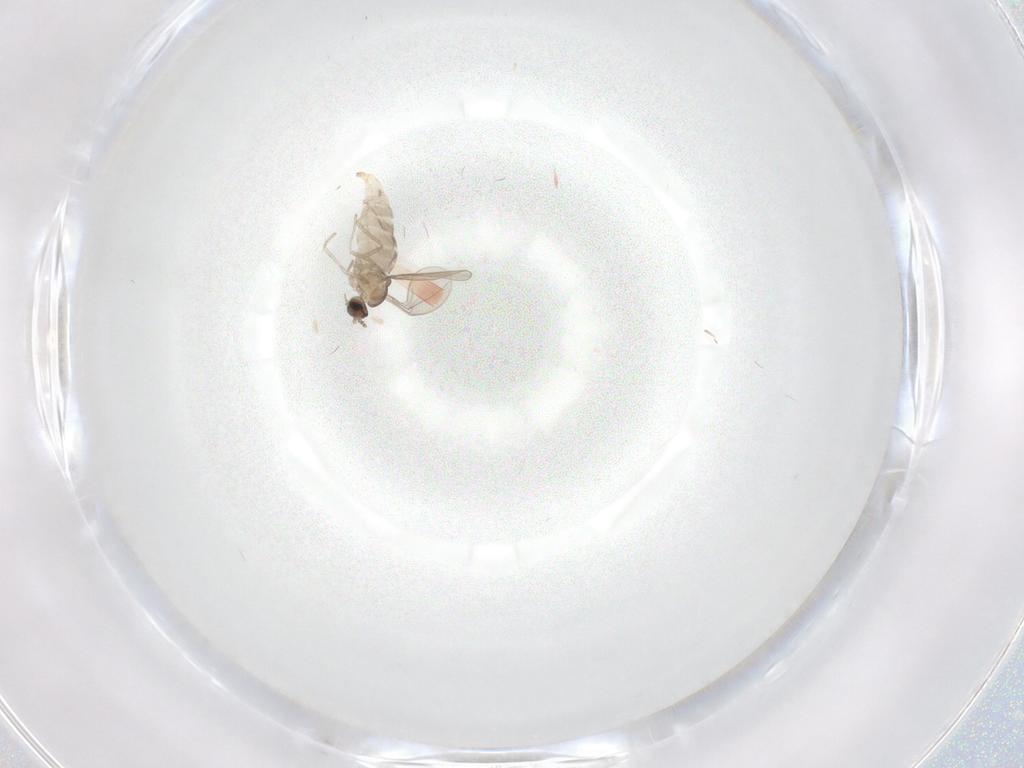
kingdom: Animalia
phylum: Arthropoda
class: Insecta
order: Diptera
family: Cecidomyiidae
